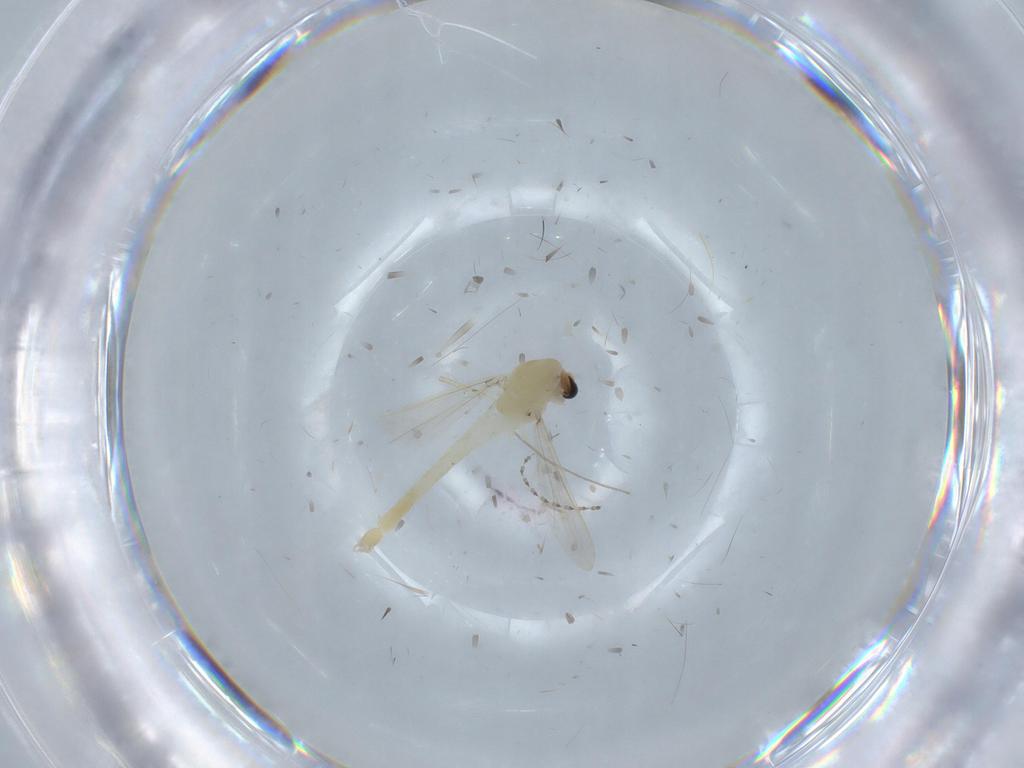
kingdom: Animalia
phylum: Arthropoda
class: Insecta
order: Diptera
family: Chironomidae
